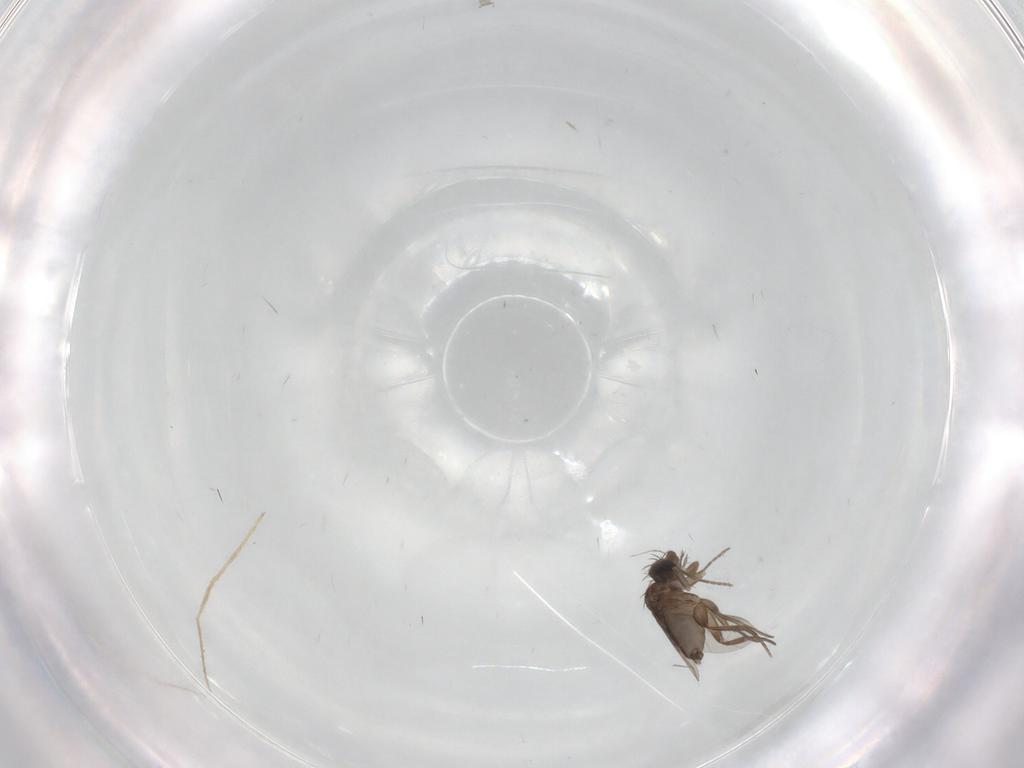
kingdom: Animalia
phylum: Arthropoda
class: Insecta
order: Diptera
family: Phoridae
